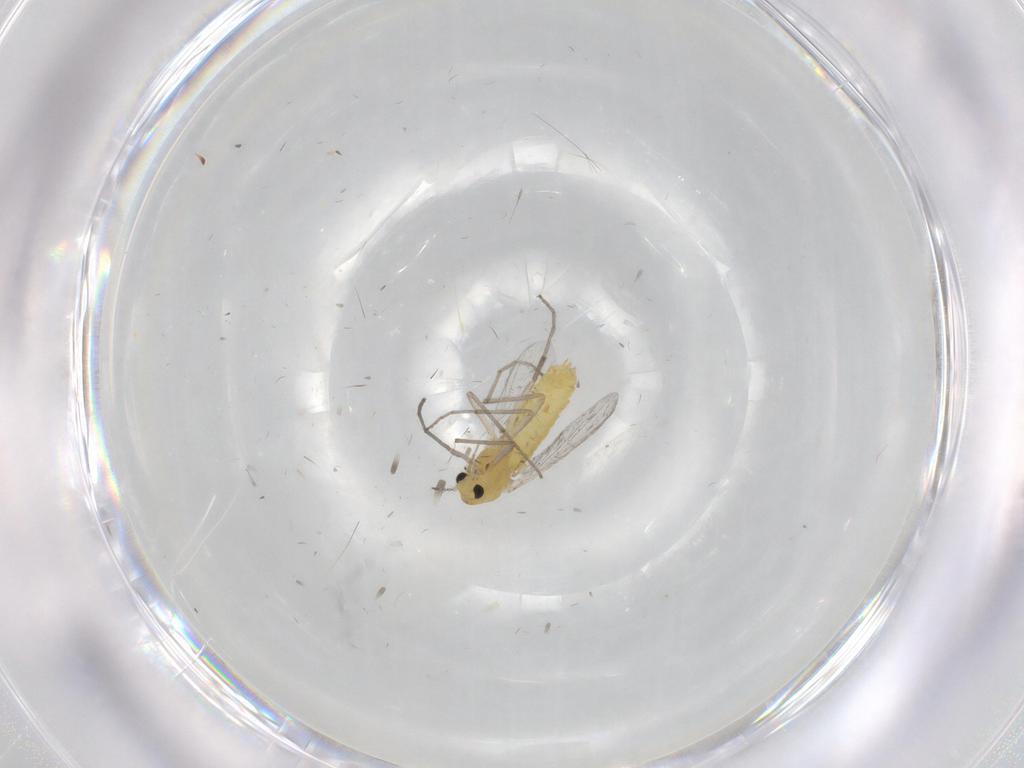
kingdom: Animalia
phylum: Arthropoda
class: Insecta
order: Diptera
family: Chironomidae
